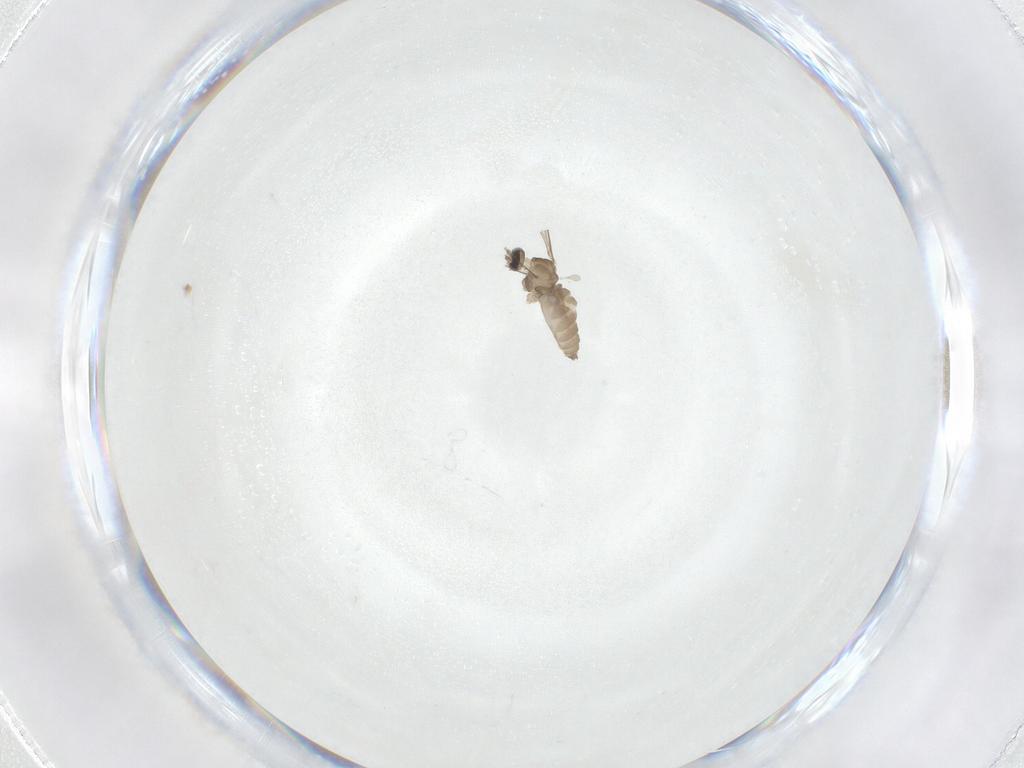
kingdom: Animalia
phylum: Arthropoda
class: Insecta
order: Diptera
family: Cecidomyiidae
